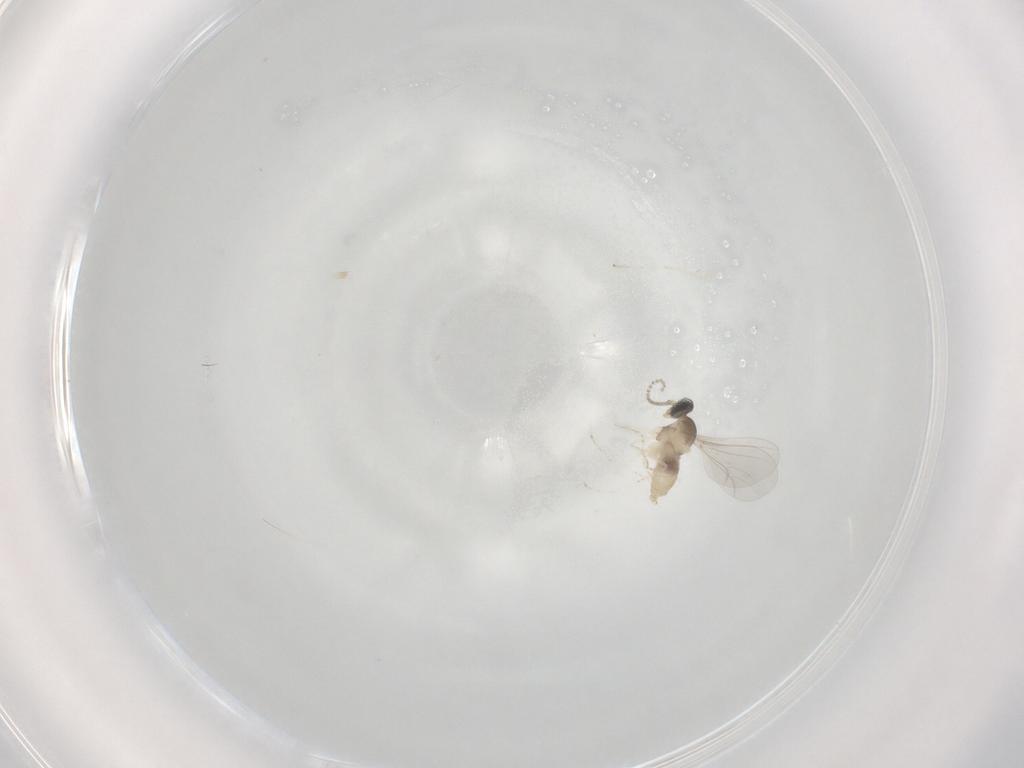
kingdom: Animalia
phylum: Arthropoda
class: Insecta
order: Diptera
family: Cecidomyiidae
